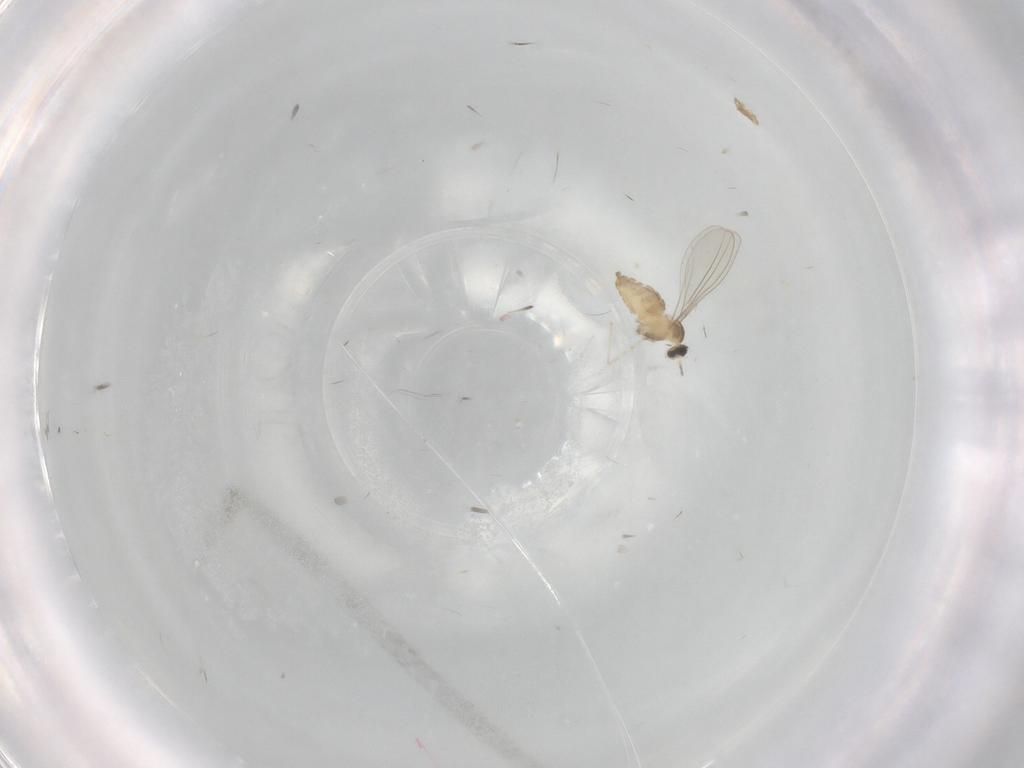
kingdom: Animalia
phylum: Arthropoda
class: Insecta
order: Diptera
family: Cecidomyiidae
